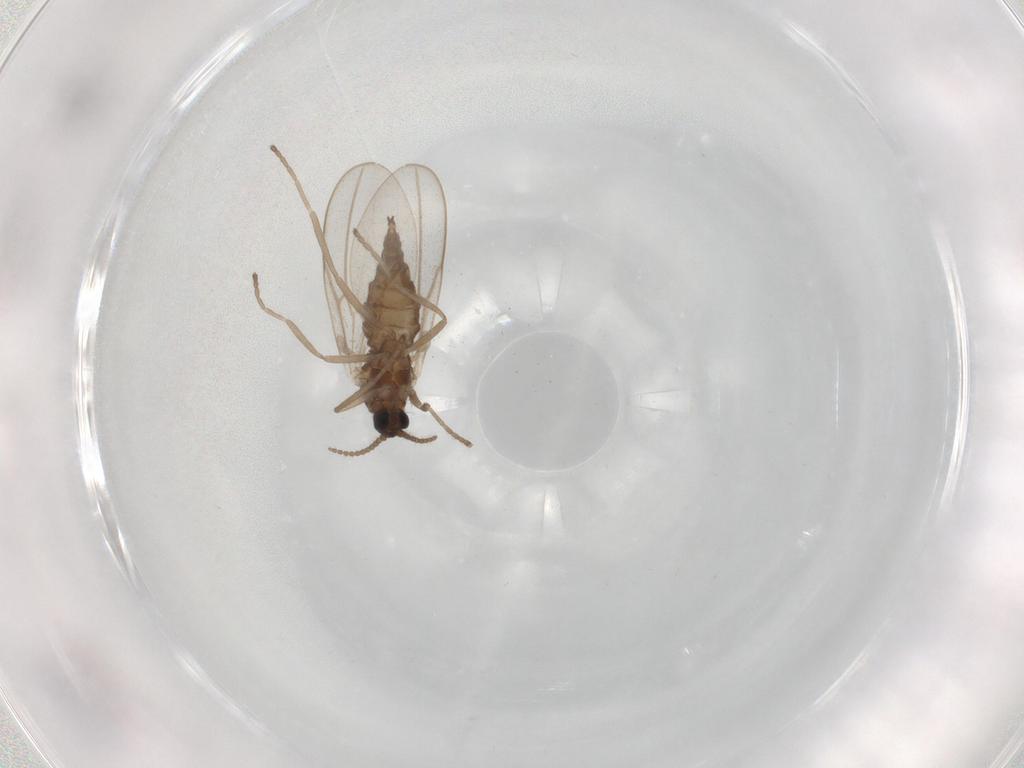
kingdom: Animalia
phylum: Arthropoda
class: Insecta
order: Diptera
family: Cecidomyiidae
